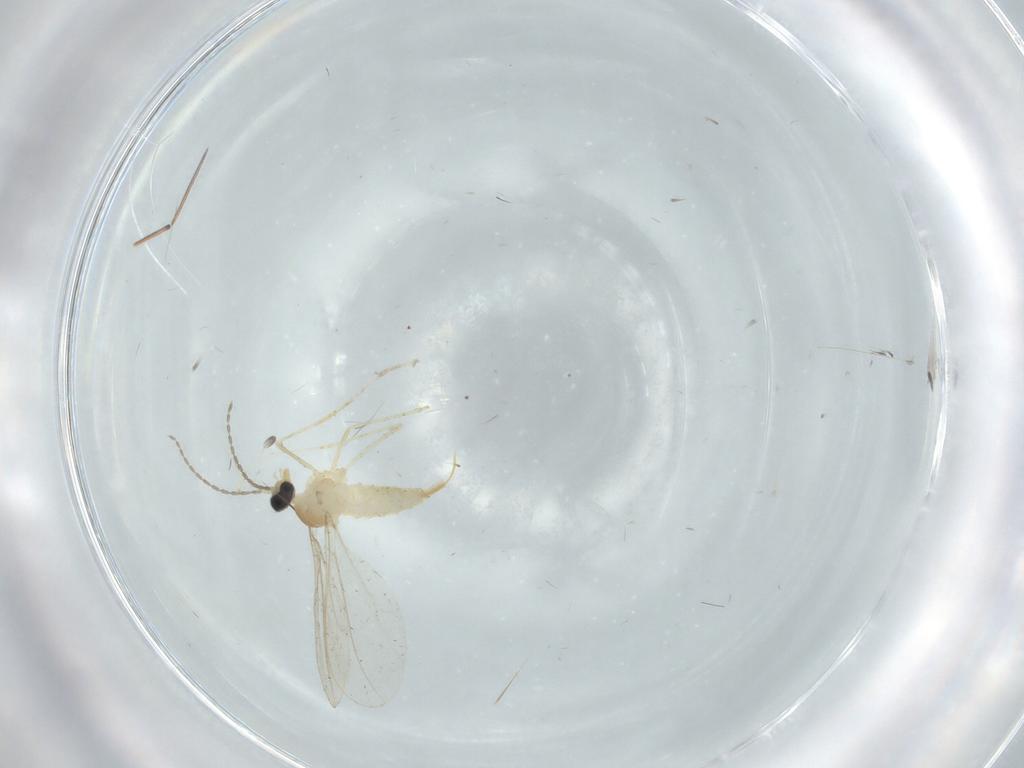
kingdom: Animalia
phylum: Arthropoda
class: Insecta
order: Diptera
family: Cecidomyiidae
